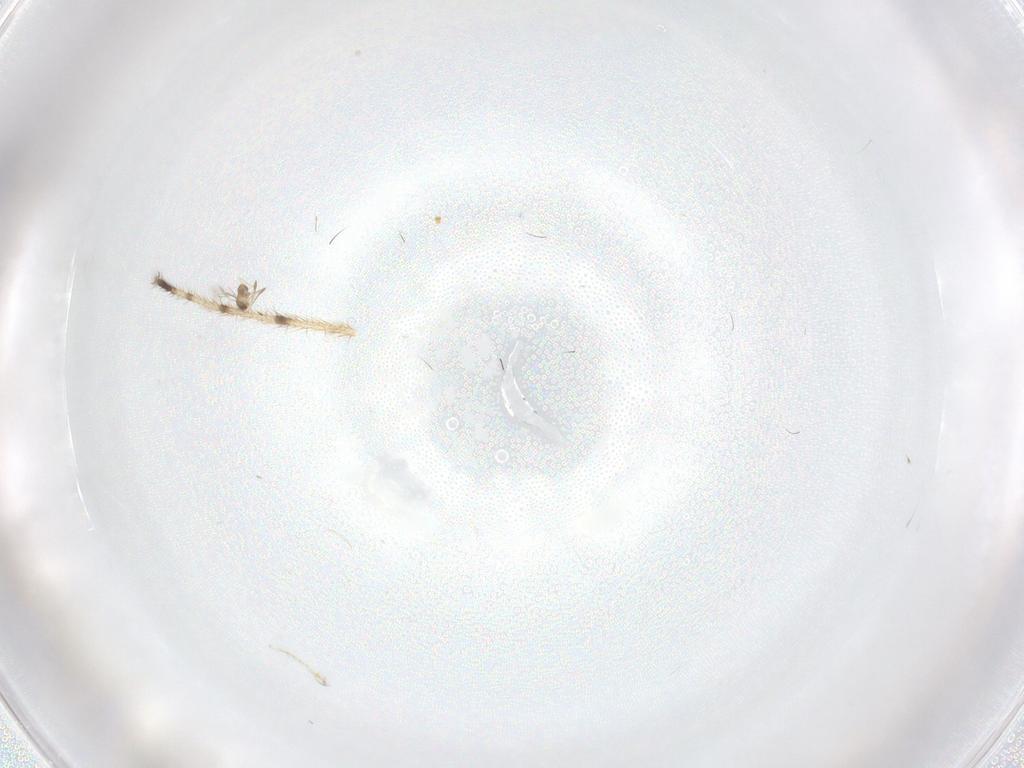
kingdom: Animalia
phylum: Arthropoda
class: Insecta
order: Diptera
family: Limoniidae
